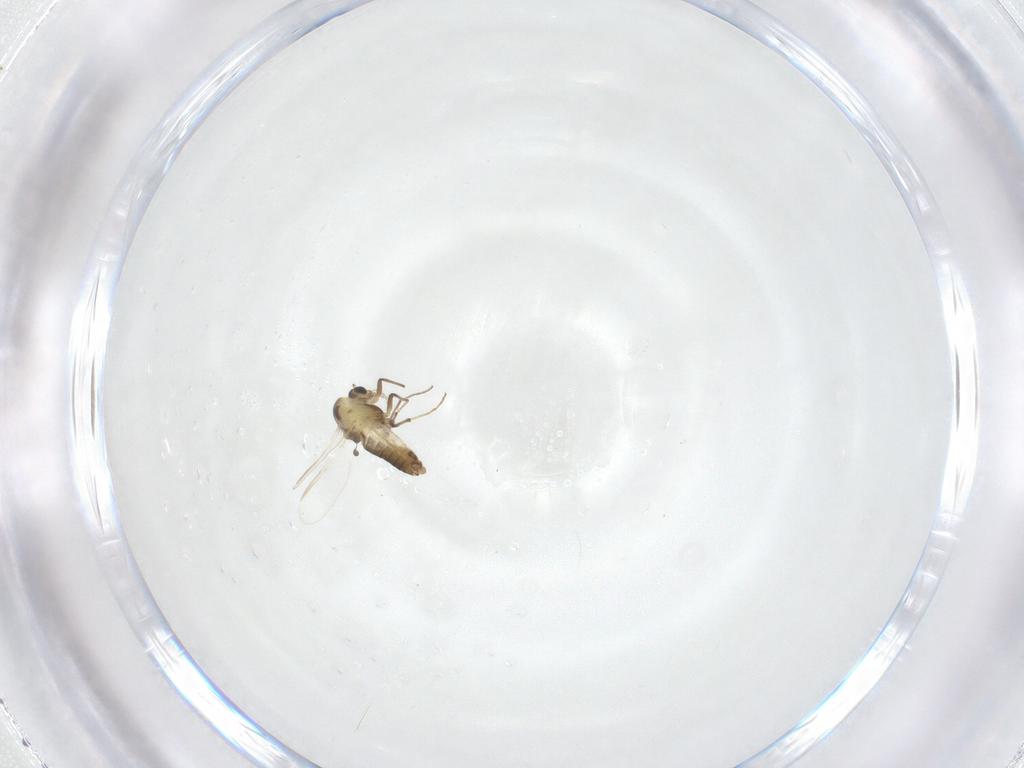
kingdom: Animalia
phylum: Arthropoda
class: Insecta
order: Diptera
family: Chironomidae
